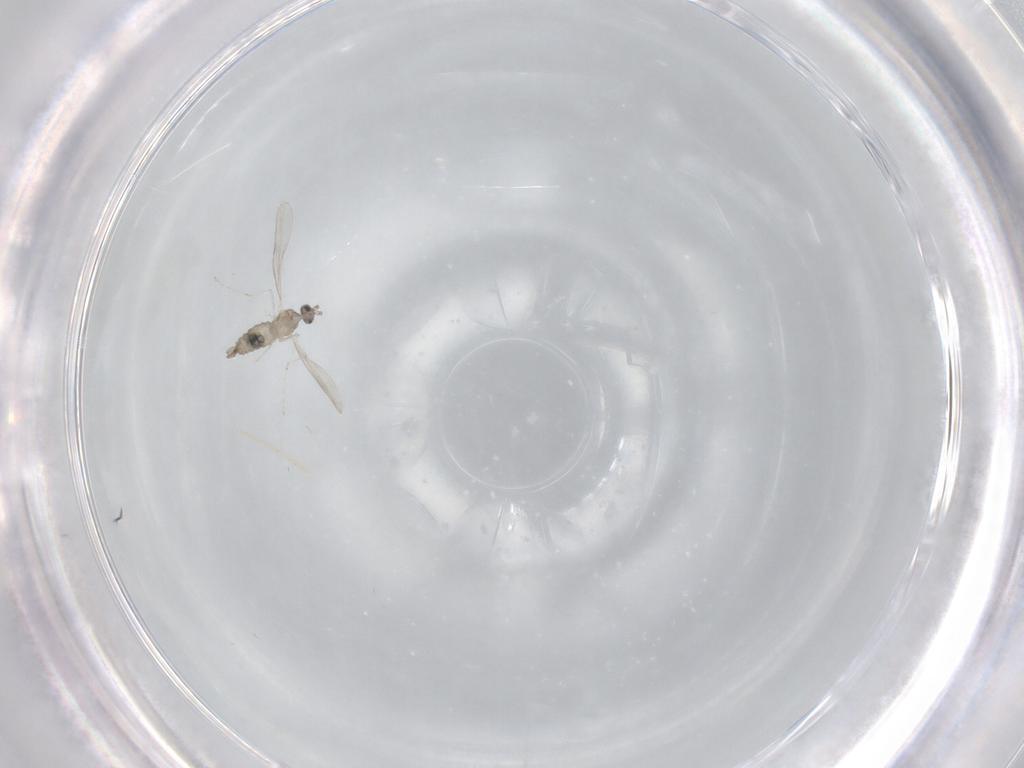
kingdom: Animalia
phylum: Arthropoda
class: Insecta
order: Diptera
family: Cecidomyiidae
